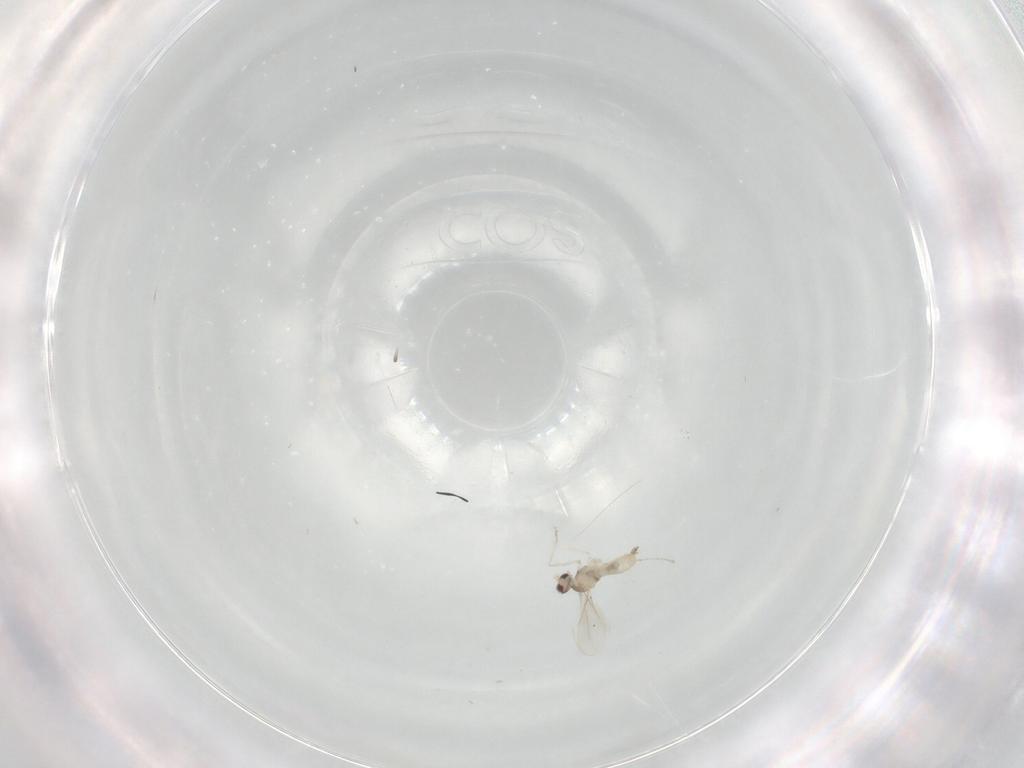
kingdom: Animalia
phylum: Arthropoda
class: Insecta
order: Diptera
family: Cecidomyiidae
